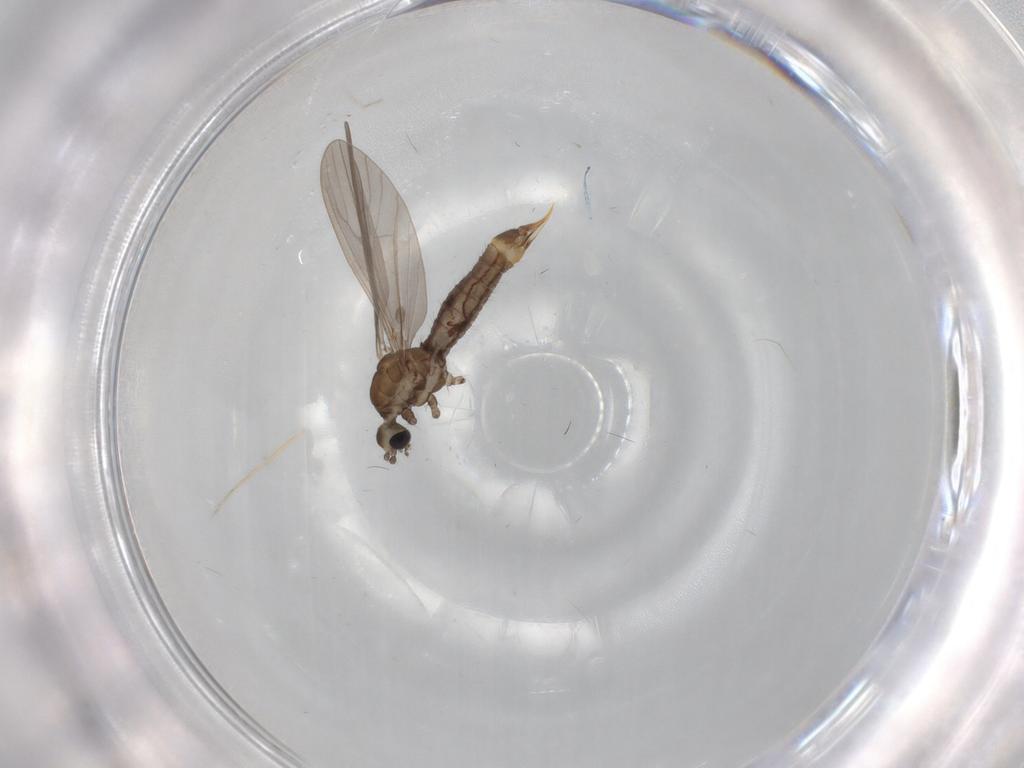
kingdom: Animalia
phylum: Arthropoda
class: Insecta
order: Diptera
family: Limoniidae
